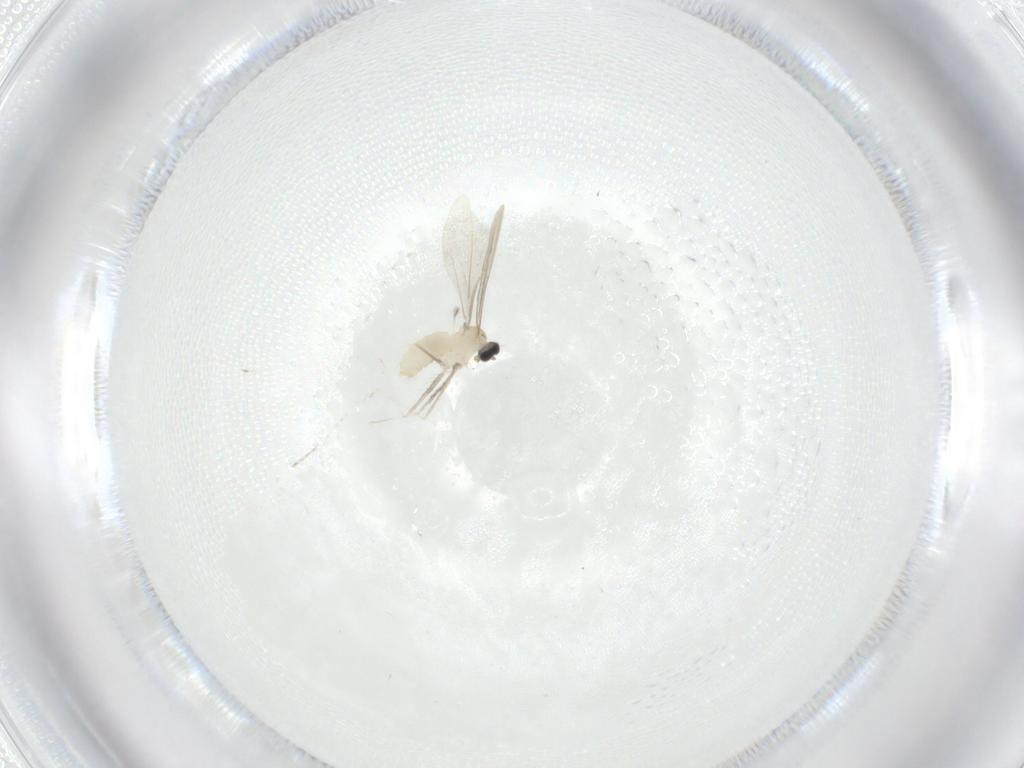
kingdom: Animalia
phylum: Arthropoda
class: Insecta
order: Diptera
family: Cecidomyiidae
